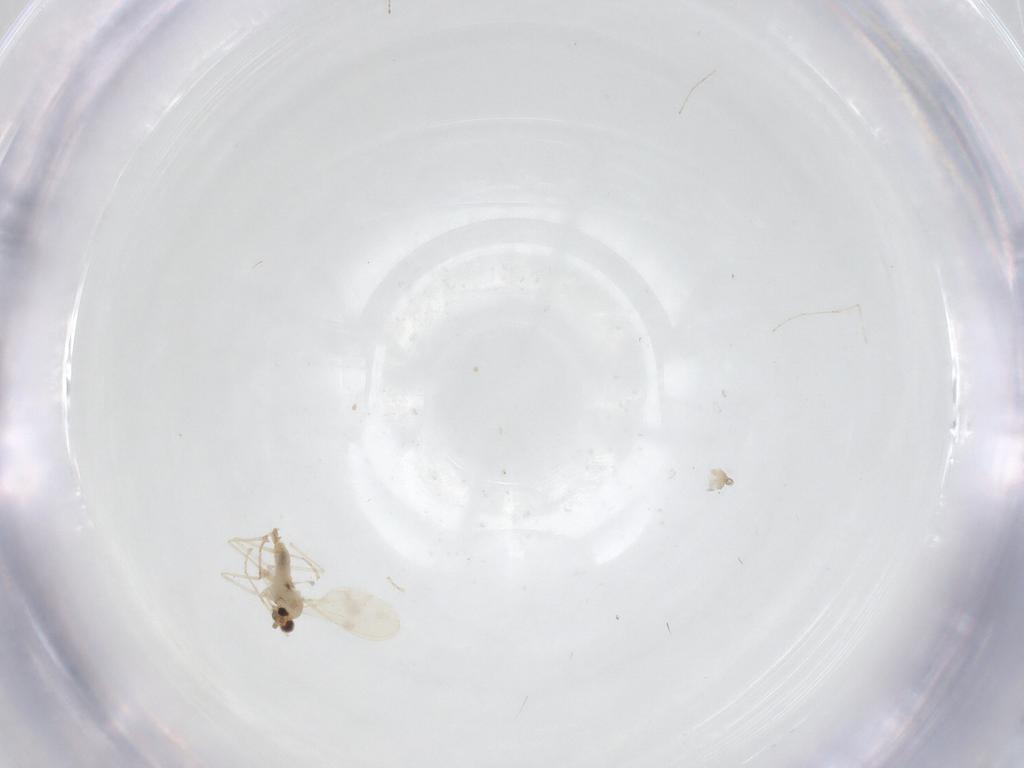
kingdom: Animalia
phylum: Arthropoda
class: Insecta
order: Diptera
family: Cecidomyiidae
